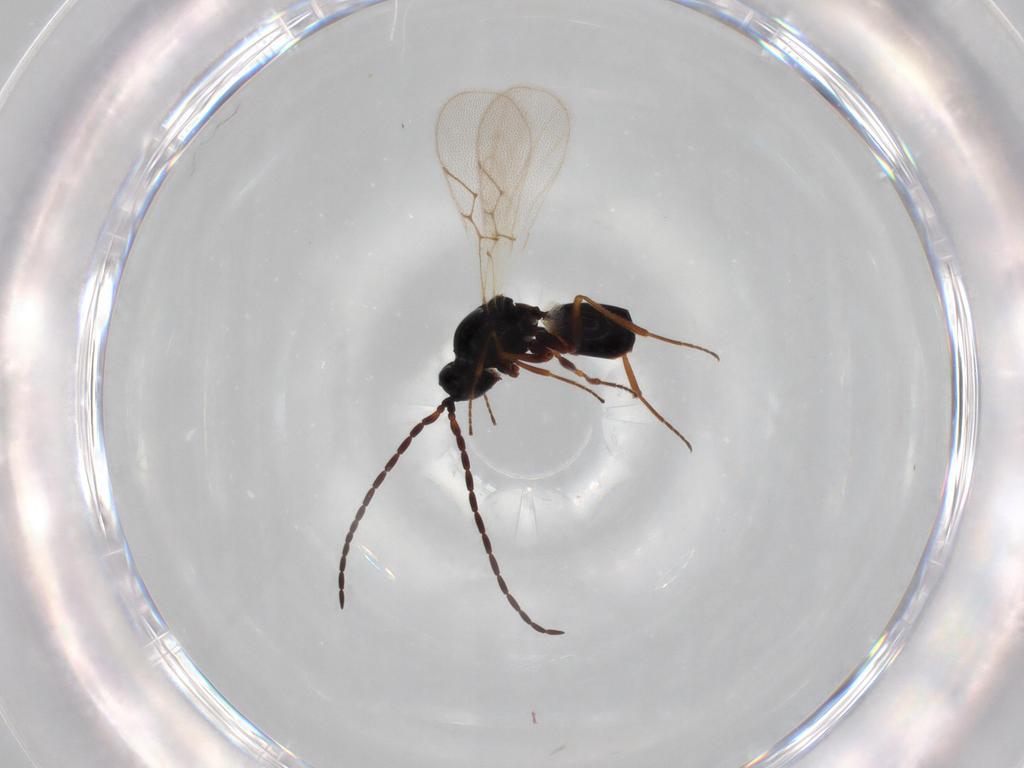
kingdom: Animalia
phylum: Arthropoda
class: Insecta
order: Hymenoptera
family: Figitidae
